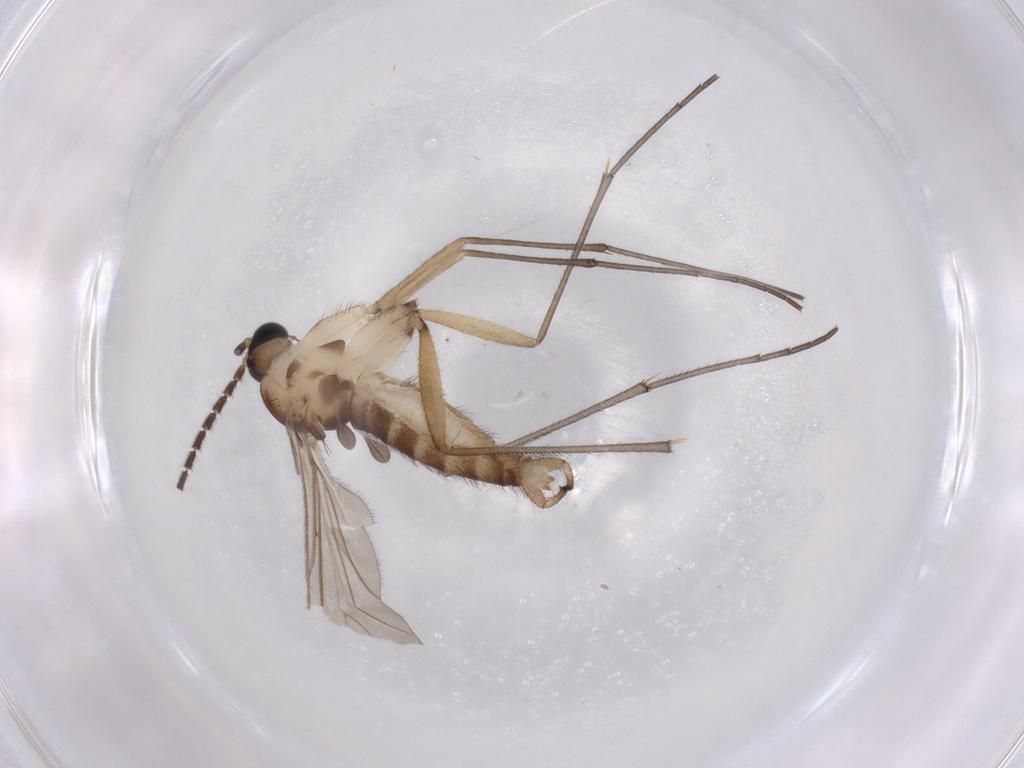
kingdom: Animalia
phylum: Arthropoda
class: Insecta
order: Diptera
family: Sciaridae
